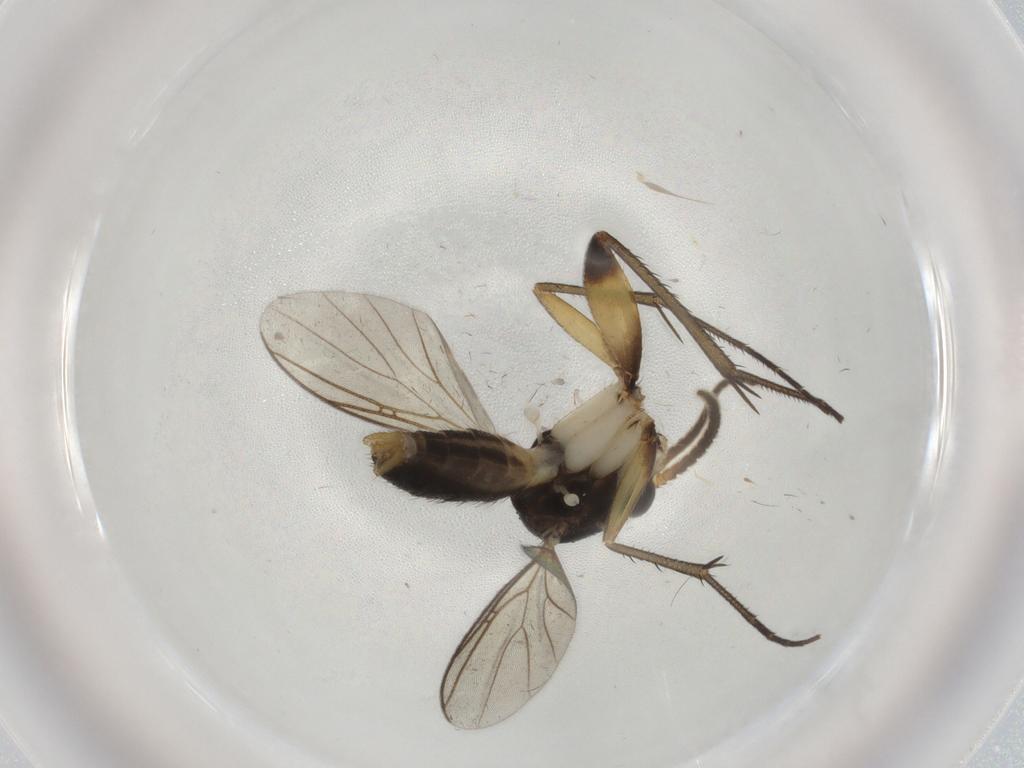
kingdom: Animalia
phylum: Arthropoda
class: Insecta
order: Diptera
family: Mycetophilidae
